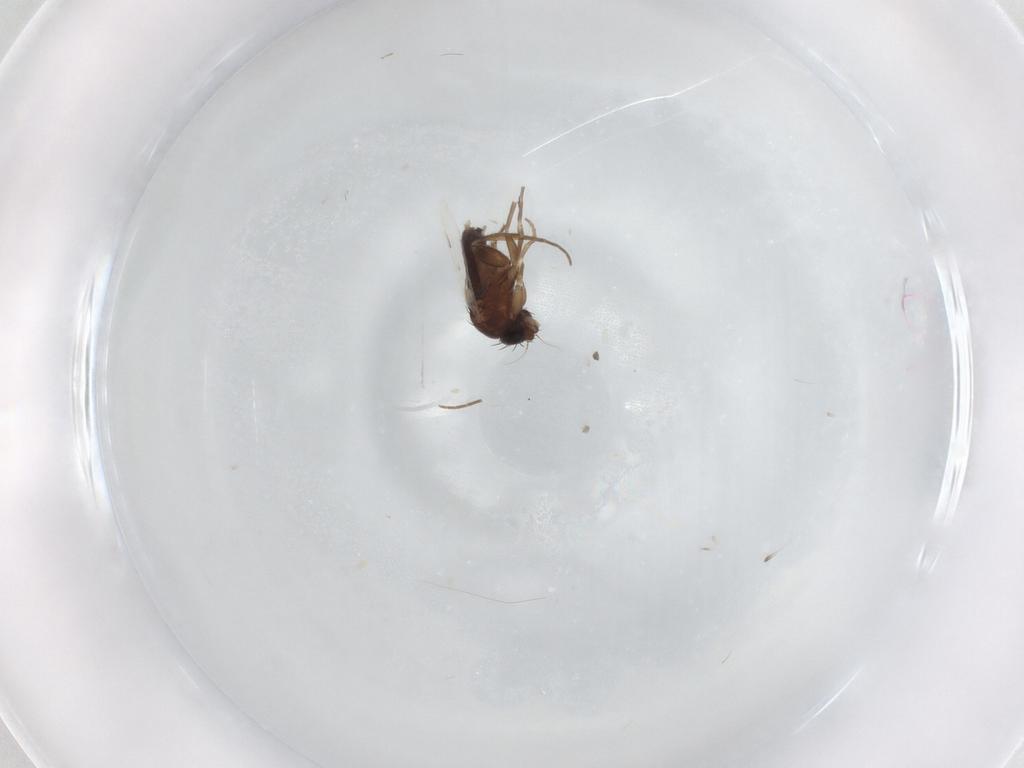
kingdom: Animalia
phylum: Arthropoda
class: Insecta
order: Diptera
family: Phoridae
